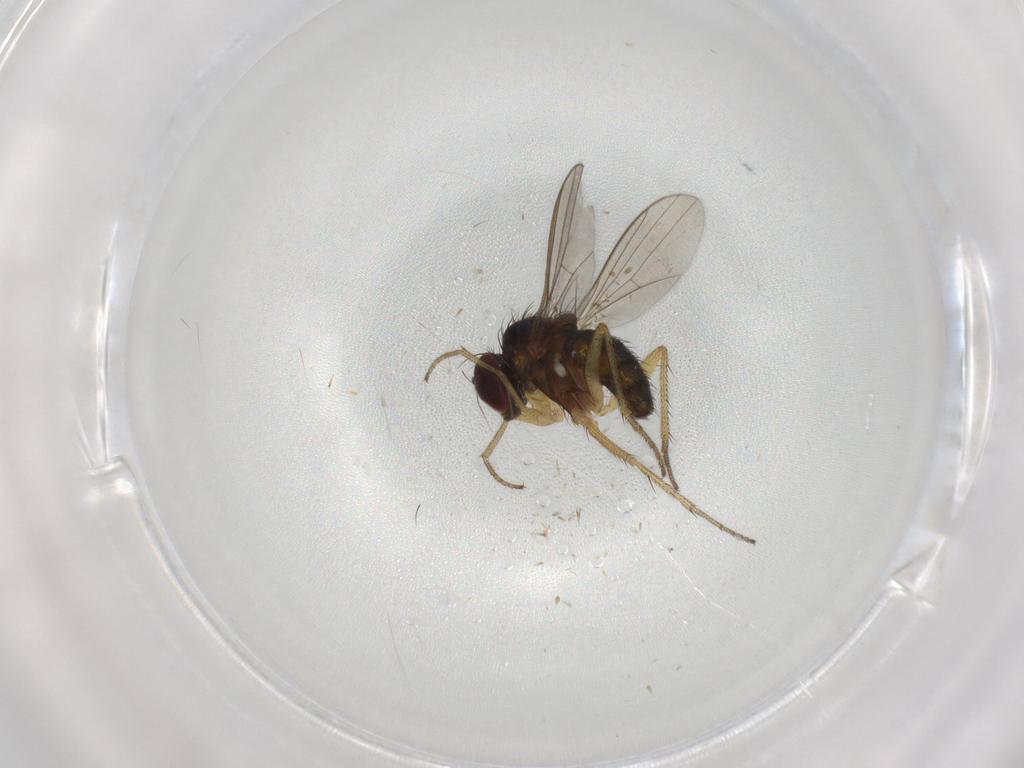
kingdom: Animalia
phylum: Arthropoda
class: Insecta
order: Diptera
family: Dolichopodidae
